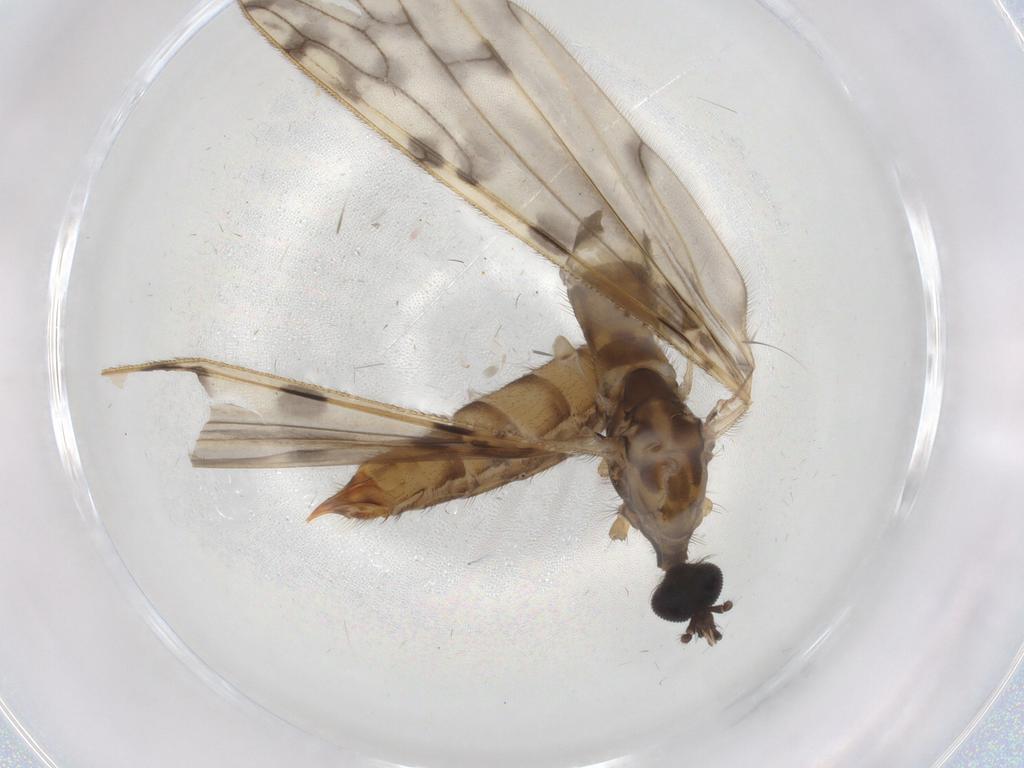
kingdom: Animalia
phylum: Arthropoda
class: Insecta
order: Diptera
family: Limoniidae
